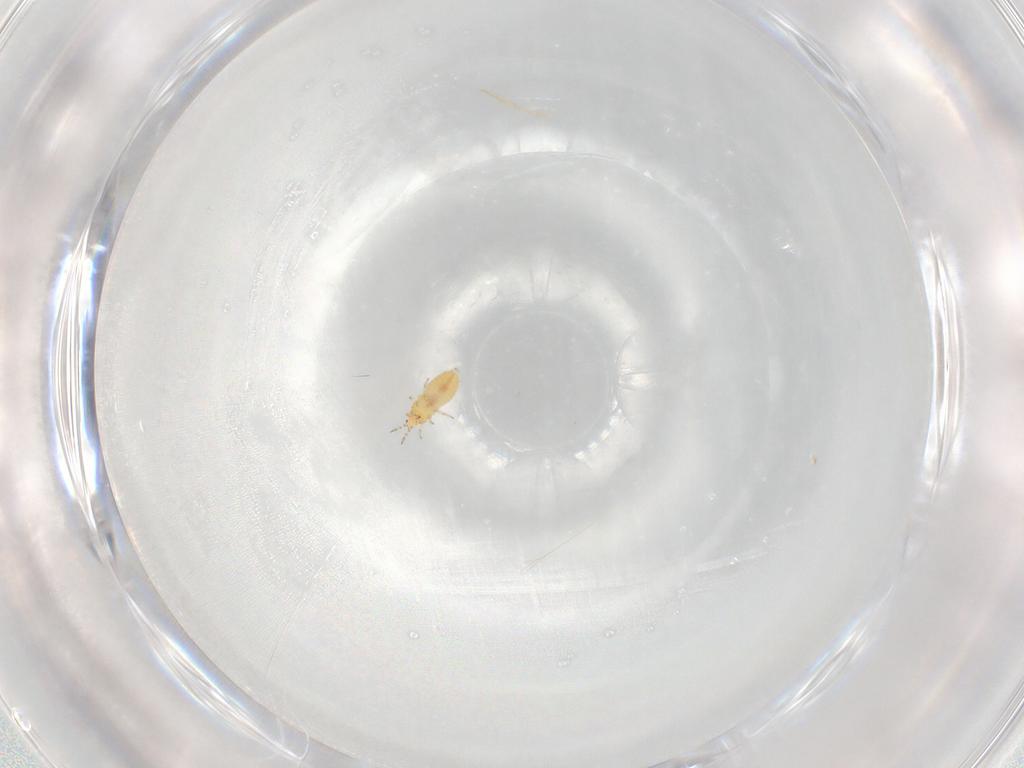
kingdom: Animalia
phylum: Arthropoda
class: Insecta
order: Thysanoptera
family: Thripidae
